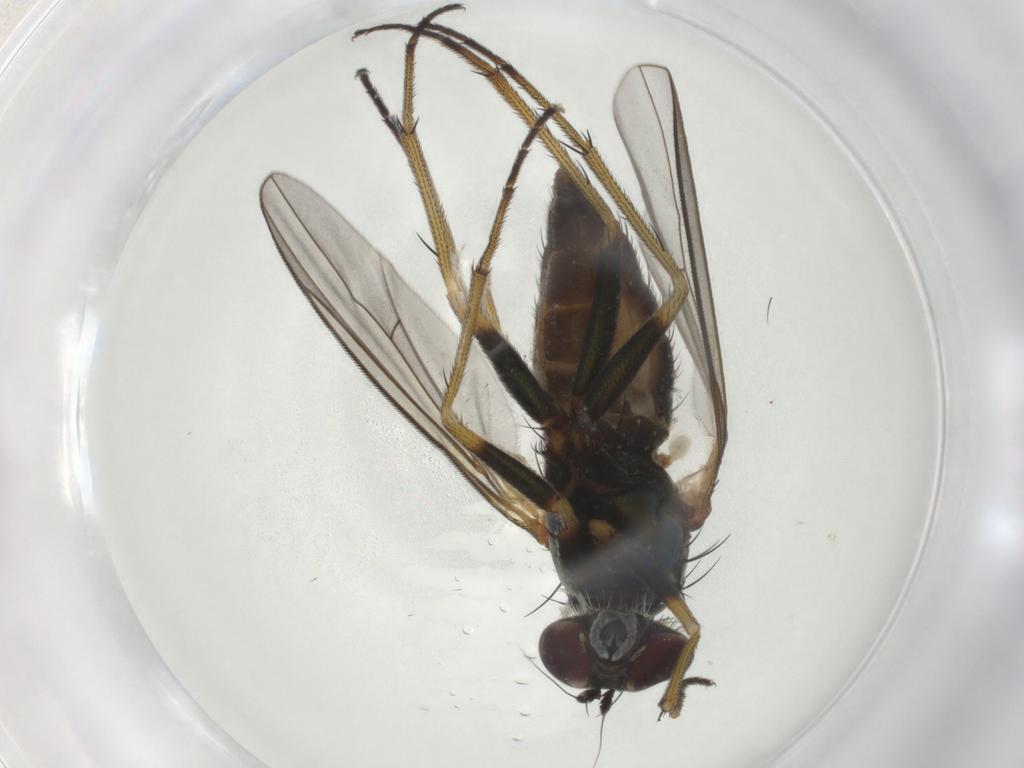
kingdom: Animalia
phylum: Arthropoda
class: Insecta
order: Diptera
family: Dolichopodidae
